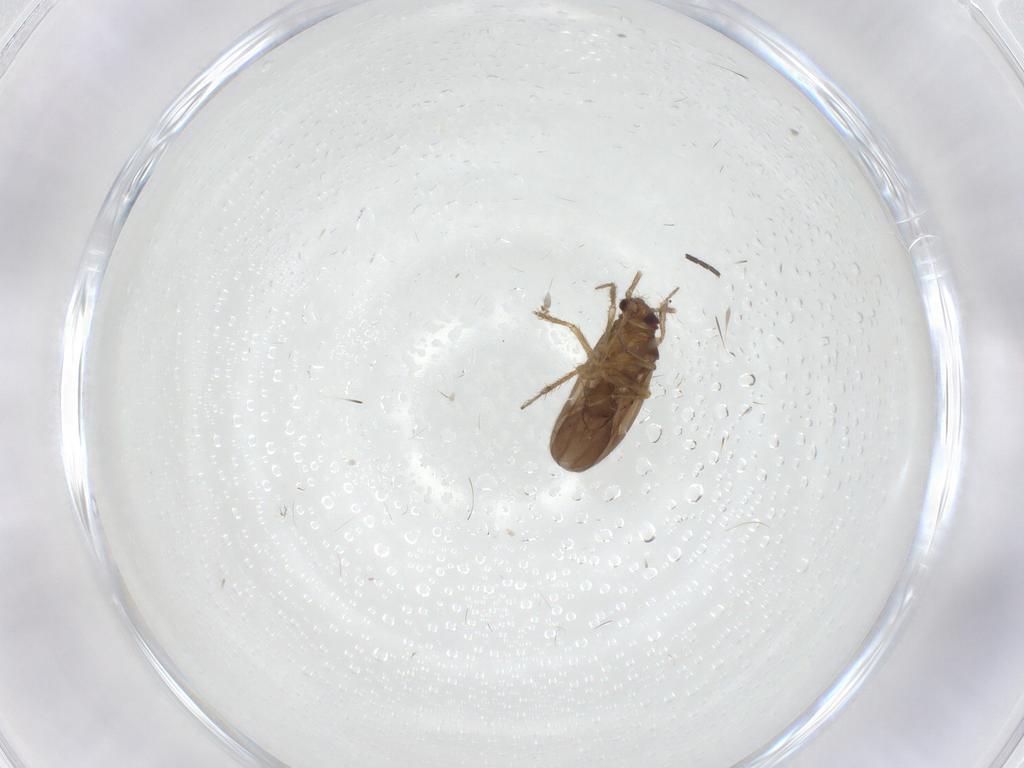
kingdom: Animalia
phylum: Arthropoda
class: Insecta
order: Hemiptera
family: Ceratocombidae
